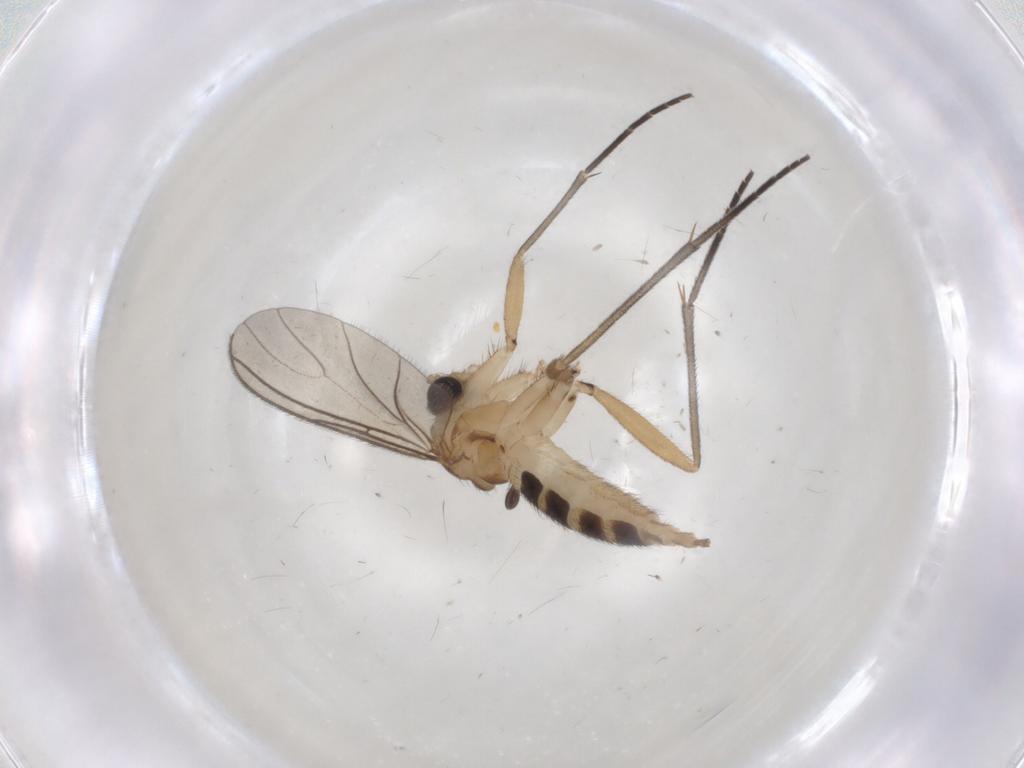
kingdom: Animalia
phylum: Arthropoda
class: Insecta
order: Diptera
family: Sciaridae
